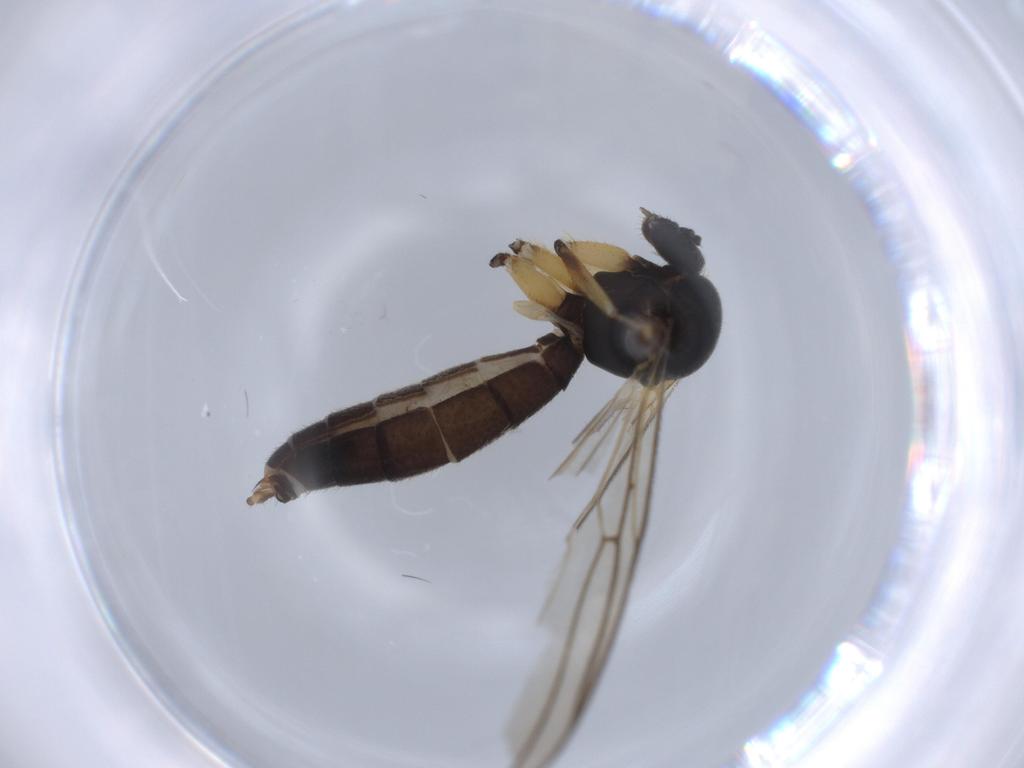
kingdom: Animalia
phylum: Arthropoda
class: Insecta
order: Diptera
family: Mycetophilidae
